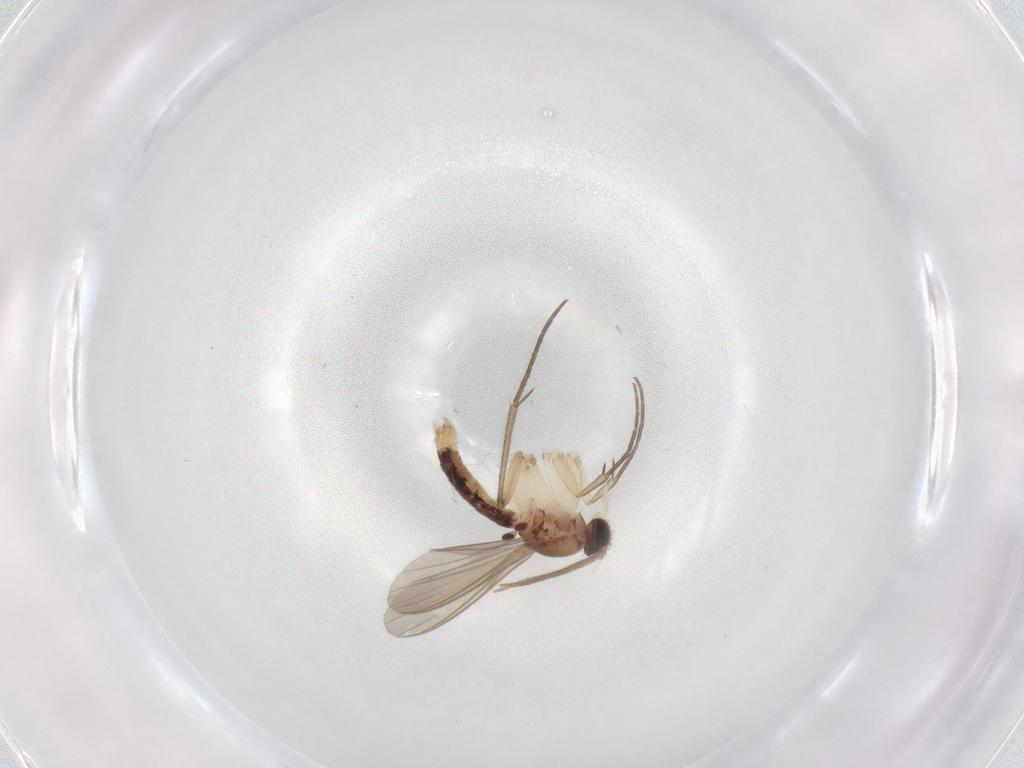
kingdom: Animalia
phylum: Arthropoda
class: Insecta
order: Diptera
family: Mycetophilidae
